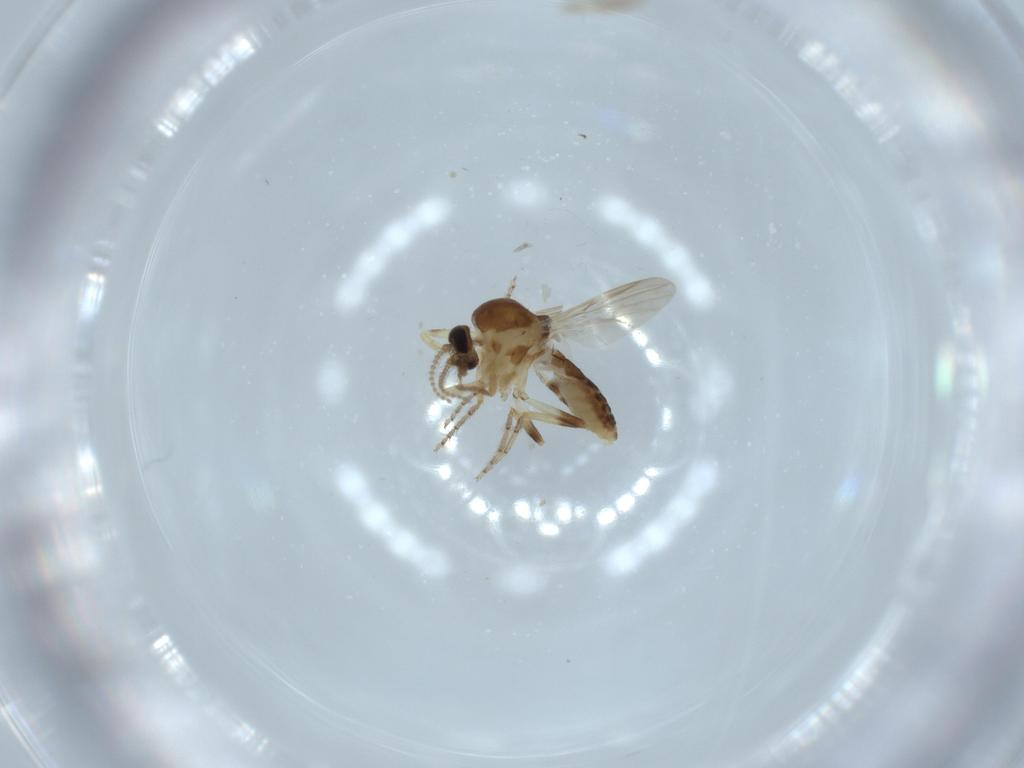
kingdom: Animalia
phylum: Arthropoda
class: Insecta
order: Diptera
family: Ceratopogonidae
